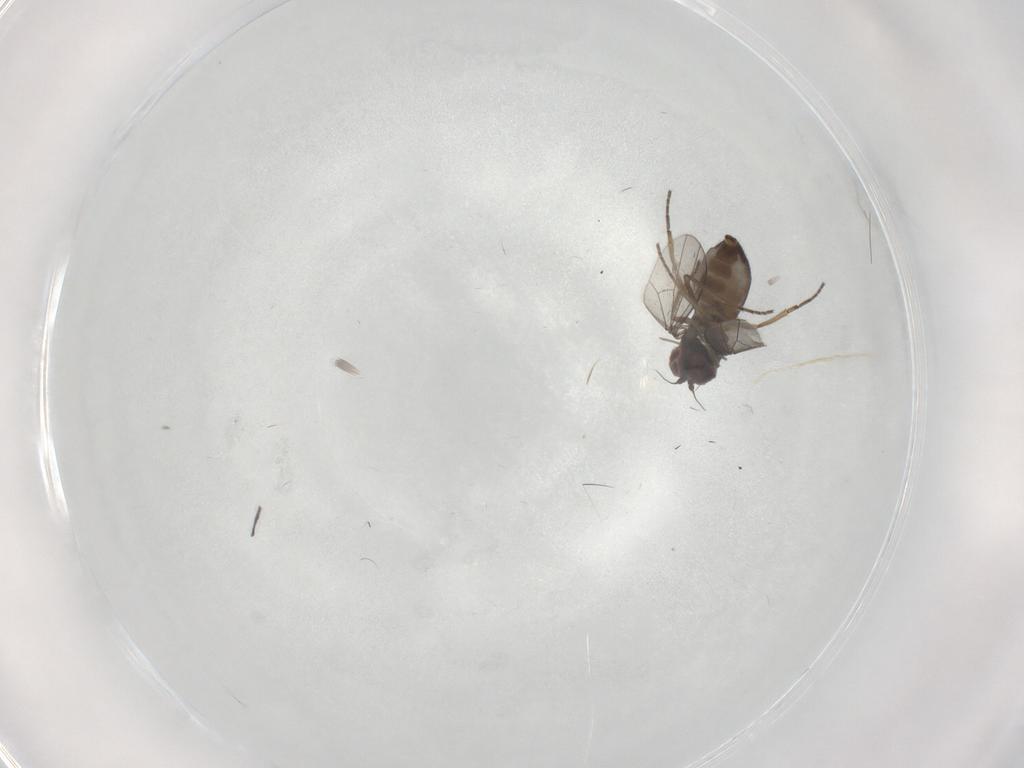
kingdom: Animalia
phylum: Arthropoda
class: Insecta
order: Diptera
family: Dolichopodidae
